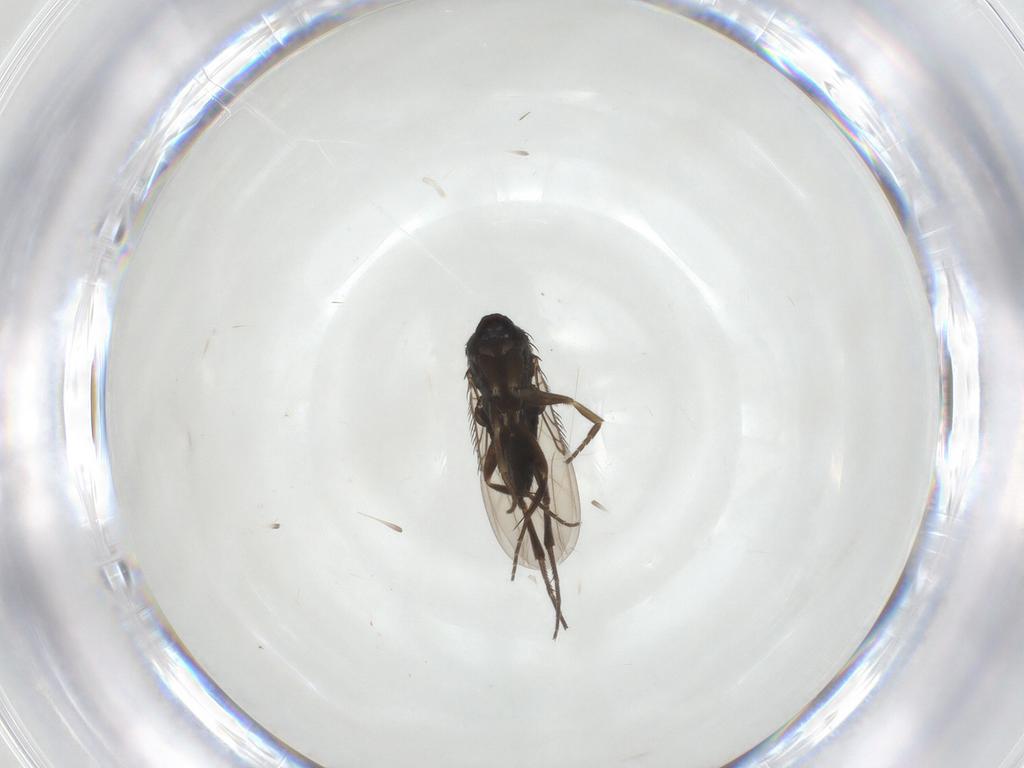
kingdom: Animalia
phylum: Arthropoda
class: Insecta
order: Diptera
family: Phoridae
